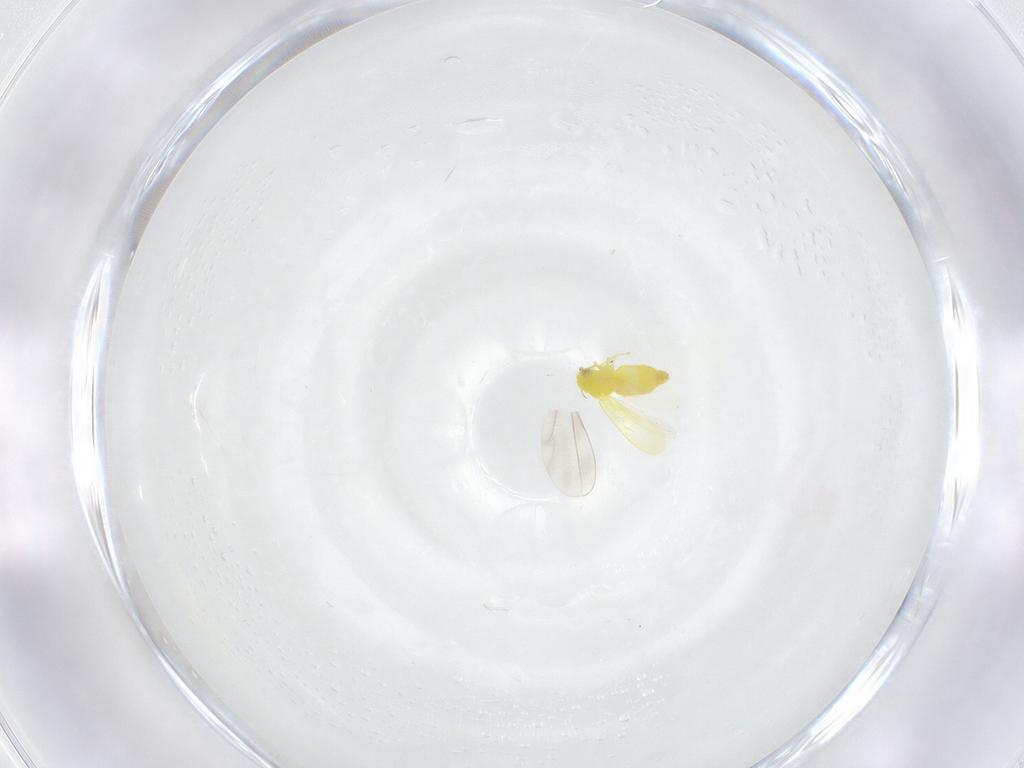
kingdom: Animalia
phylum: Arthropoda
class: Insecta
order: Hemiptera
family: Aleyrodidae
